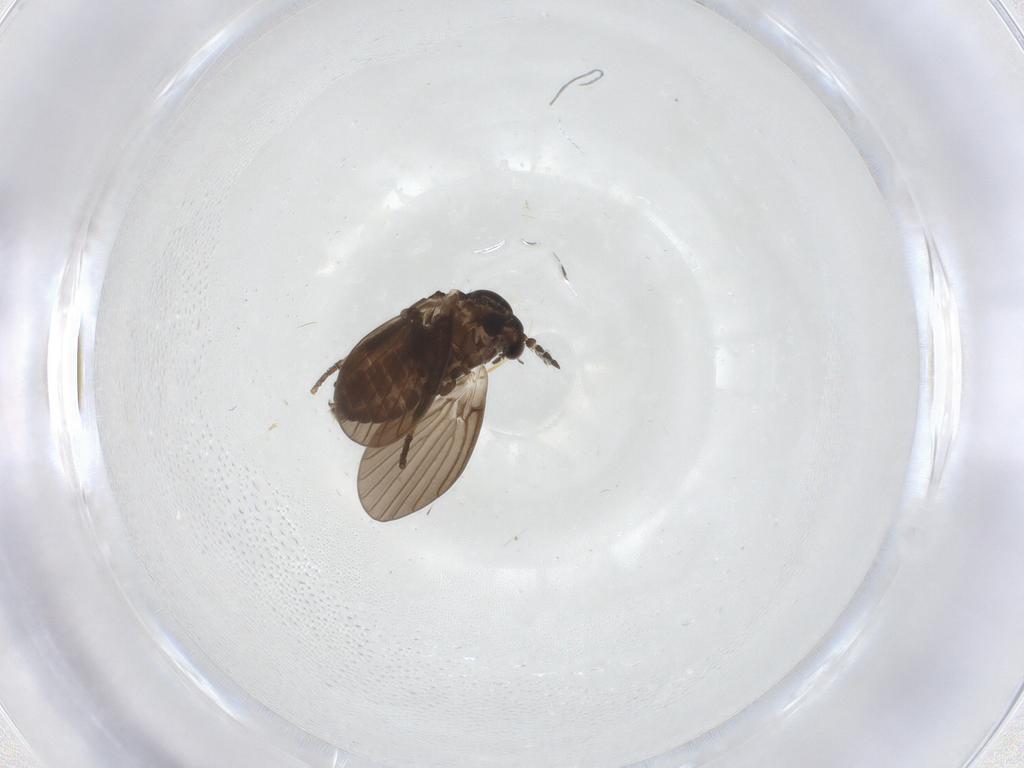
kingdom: Animalia
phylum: Arthropoda
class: Insecta
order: Diptera
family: Psychodidae
